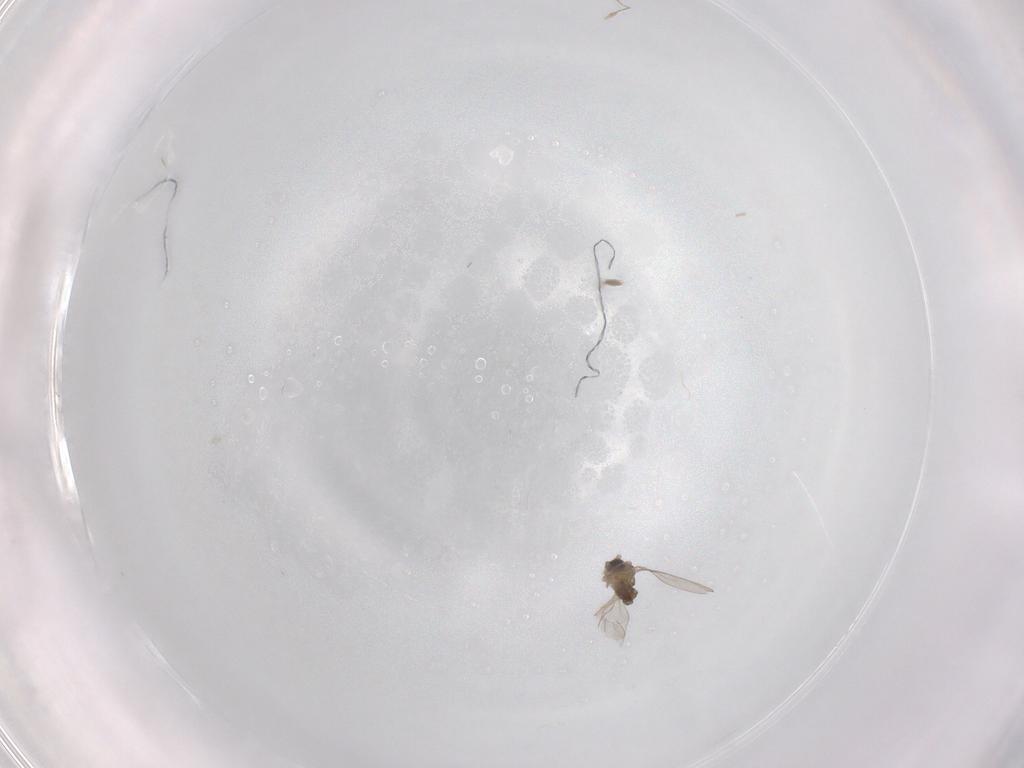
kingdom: Animalia
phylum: Arthropoda
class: Insecta
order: Diptera
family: Cecidomyiidae
